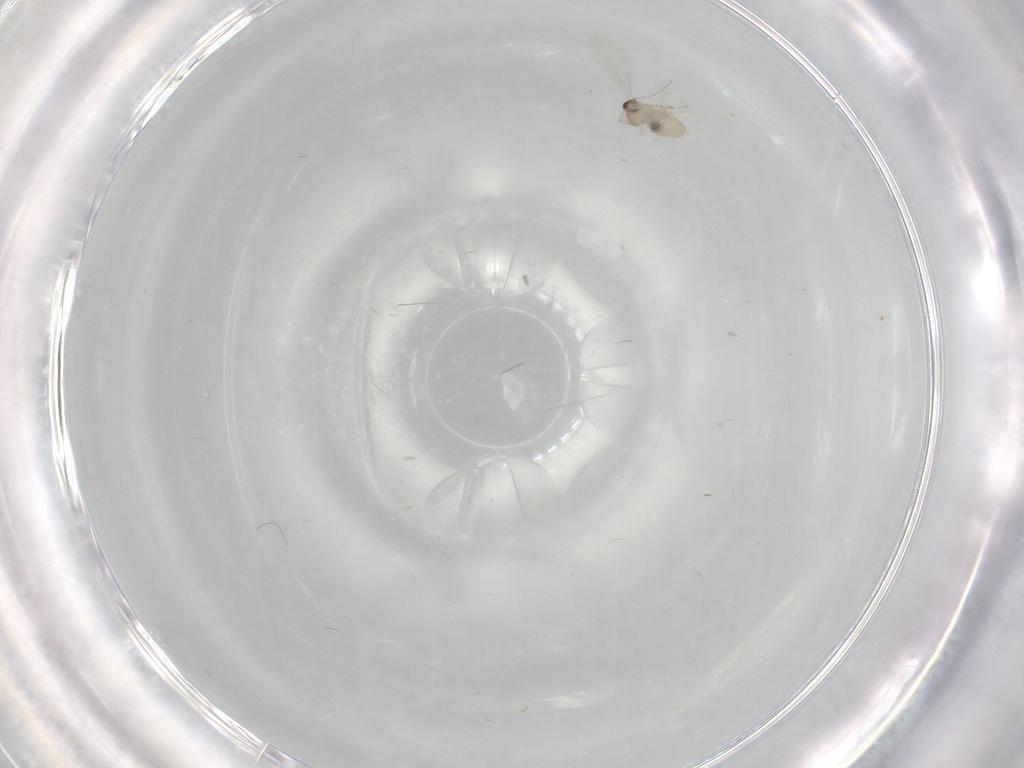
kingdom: Animalia
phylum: Arthropoda
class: Insecta
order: Diptera
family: Cecidomyiidae
